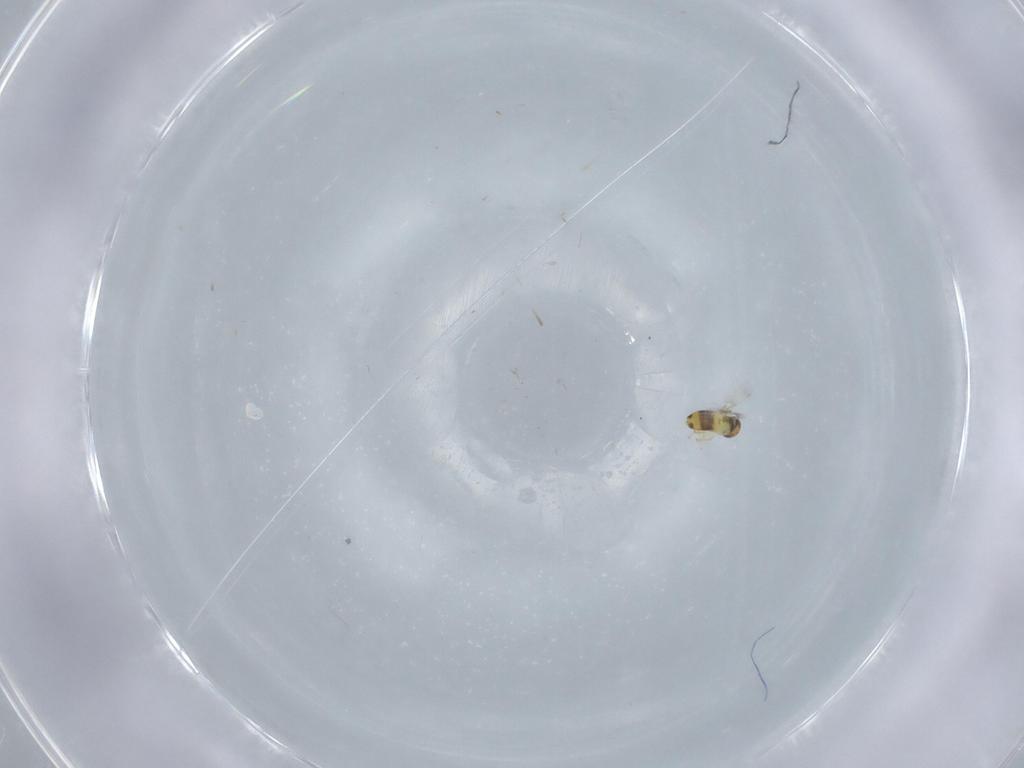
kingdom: Animalia
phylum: Arthropoda
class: Insecta
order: Hymenoptera
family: Signiphoridae
